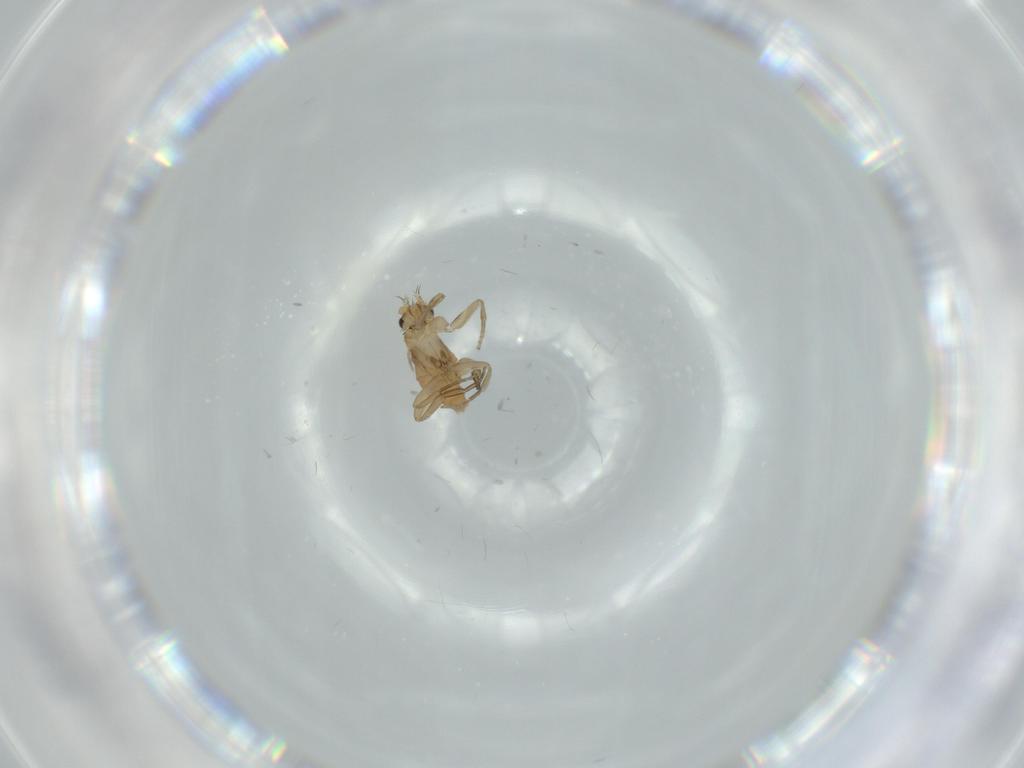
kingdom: Animalia
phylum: Arthropoda
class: Insecta
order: Diptera
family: Phoridae
